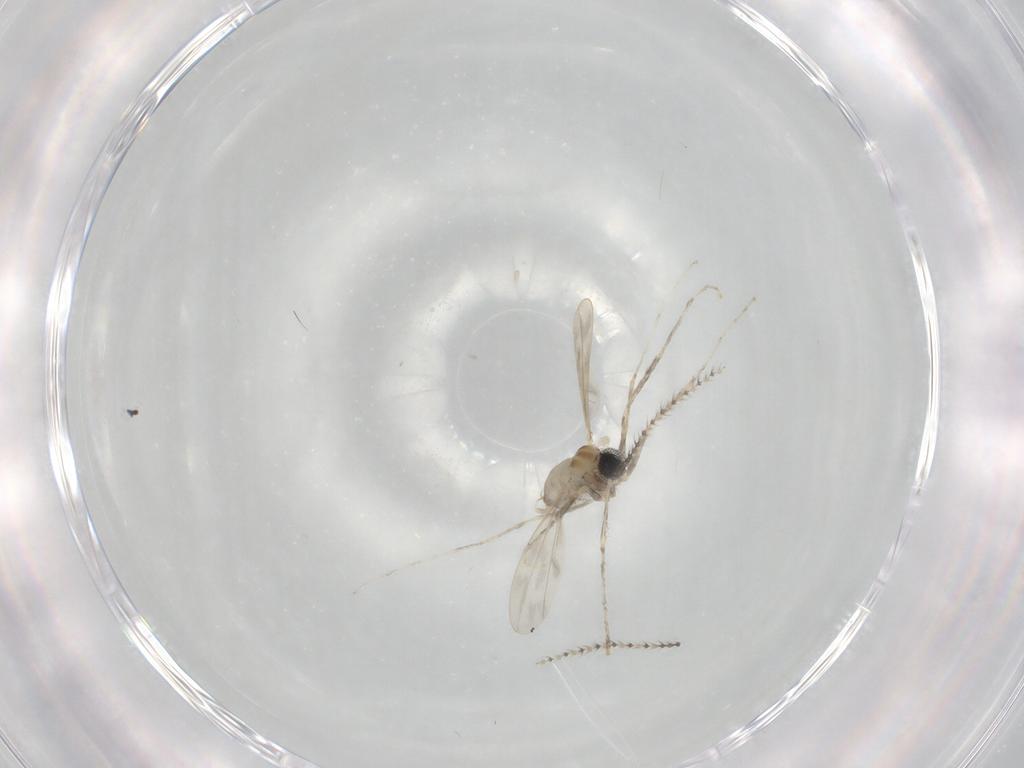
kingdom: Animalia
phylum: Arthropoda
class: Insecta
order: Diptera
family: Cecidomyiidae
